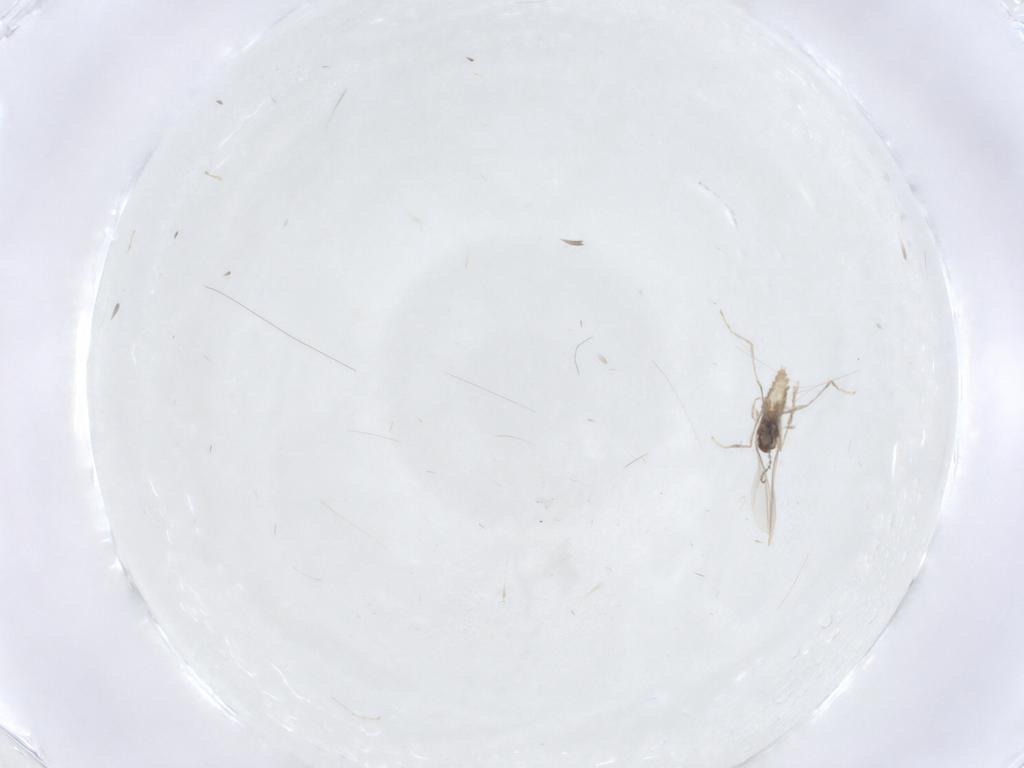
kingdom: Animalia
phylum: Arthropoda
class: Insecta
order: Diptera
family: Cecidomyiidae
